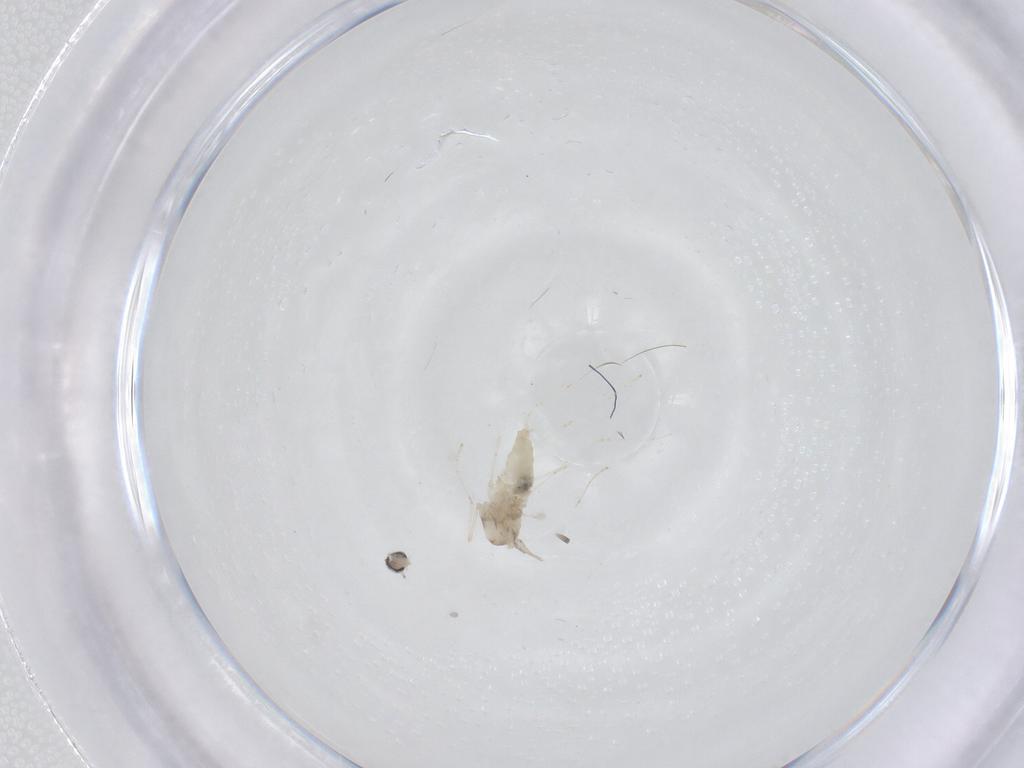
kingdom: Animalia
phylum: Arthropoda
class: Insecta
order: Diptera
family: Cecidomyiidae
